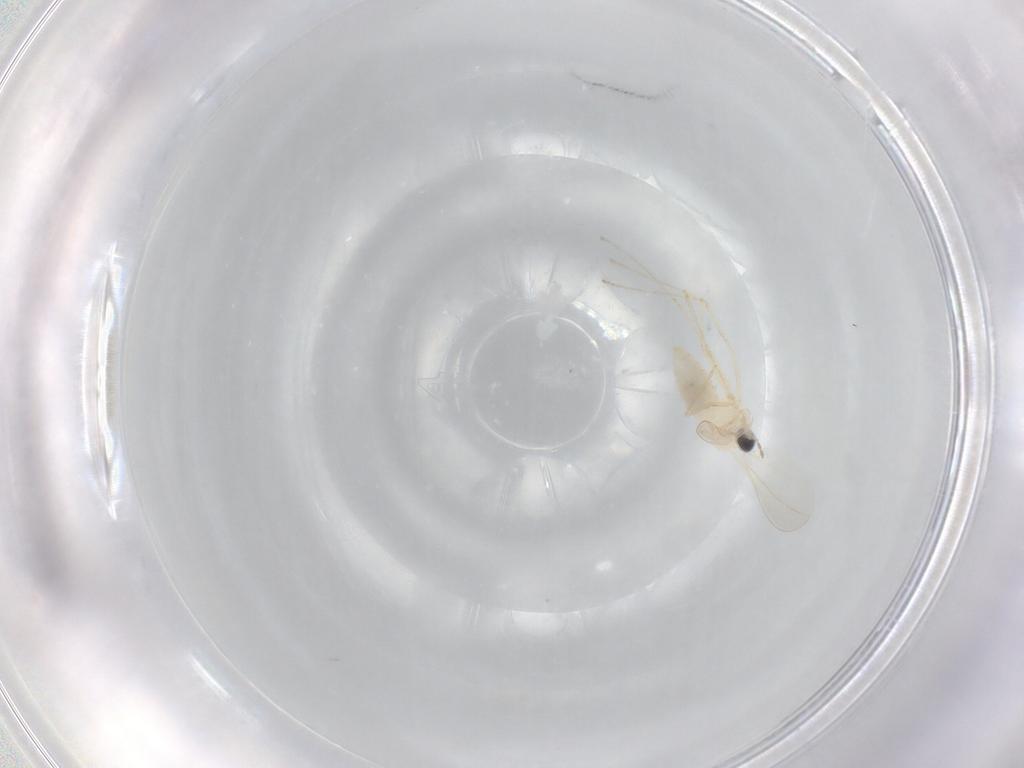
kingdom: Animalia
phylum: Arthropoda
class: Insecta
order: Diptera
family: Cecidomyiidae
